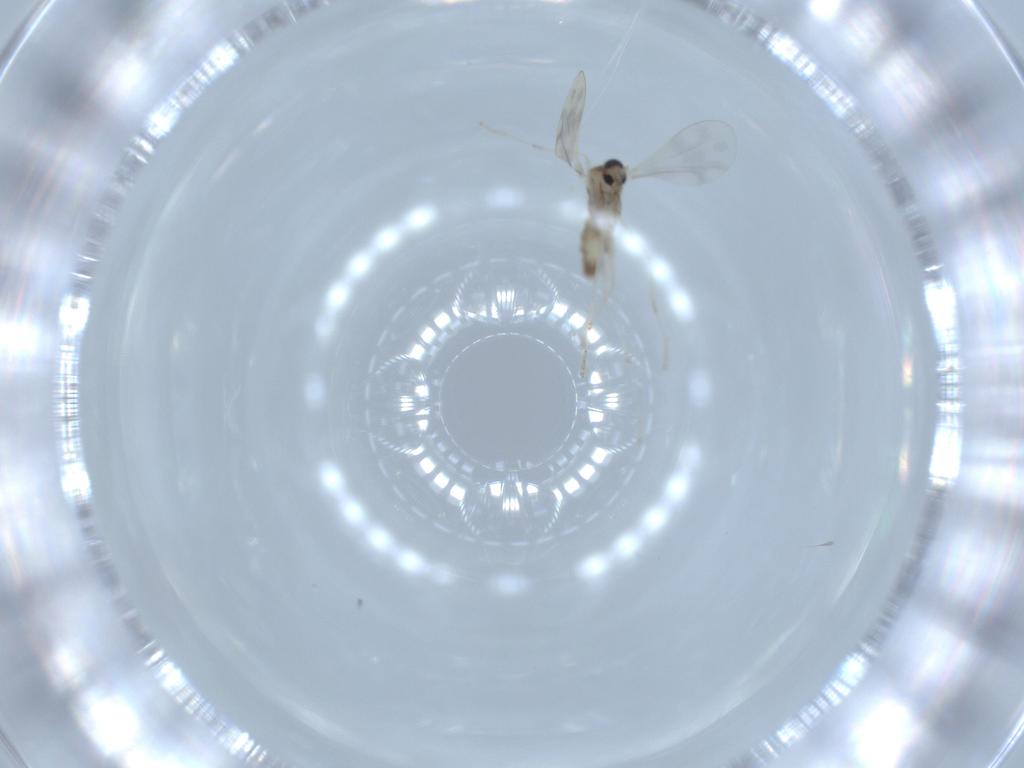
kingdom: Animalia
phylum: Arthropoda
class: Insecta
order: Diptera
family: Cecidomyiidae
